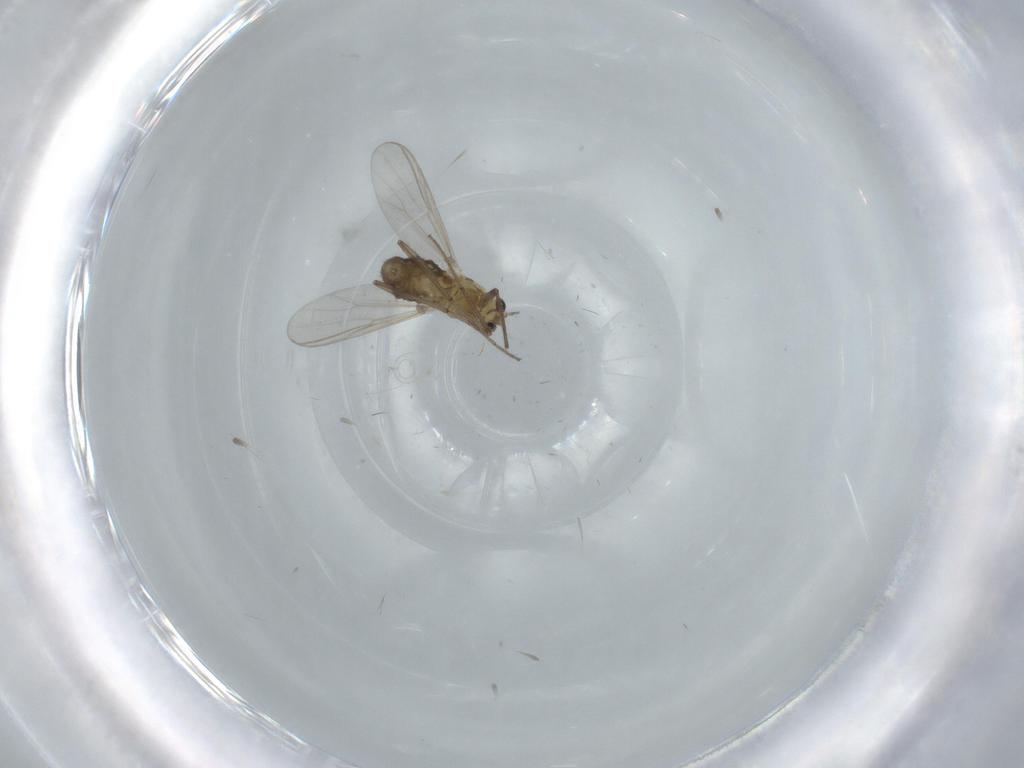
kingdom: Animalia
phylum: Arthropoda
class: Insecta
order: Diptera
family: Chironomidae
